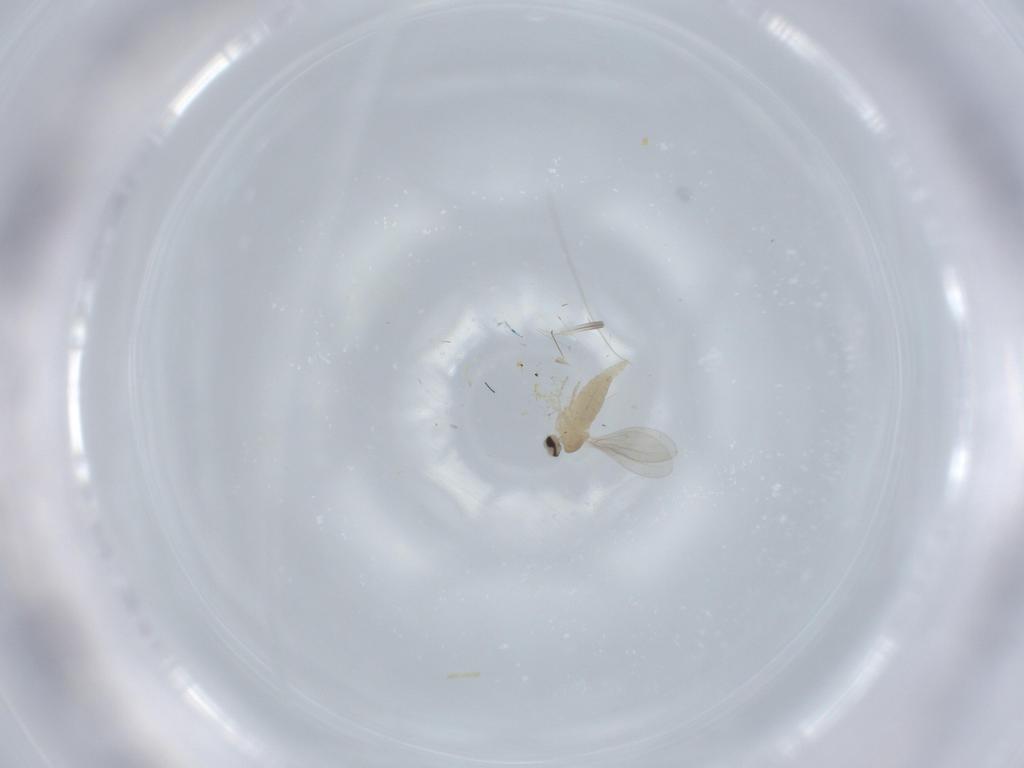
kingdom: Animalia
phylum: Arthropoda
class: Insecta
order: Diptera
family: Cecidomyiidae
